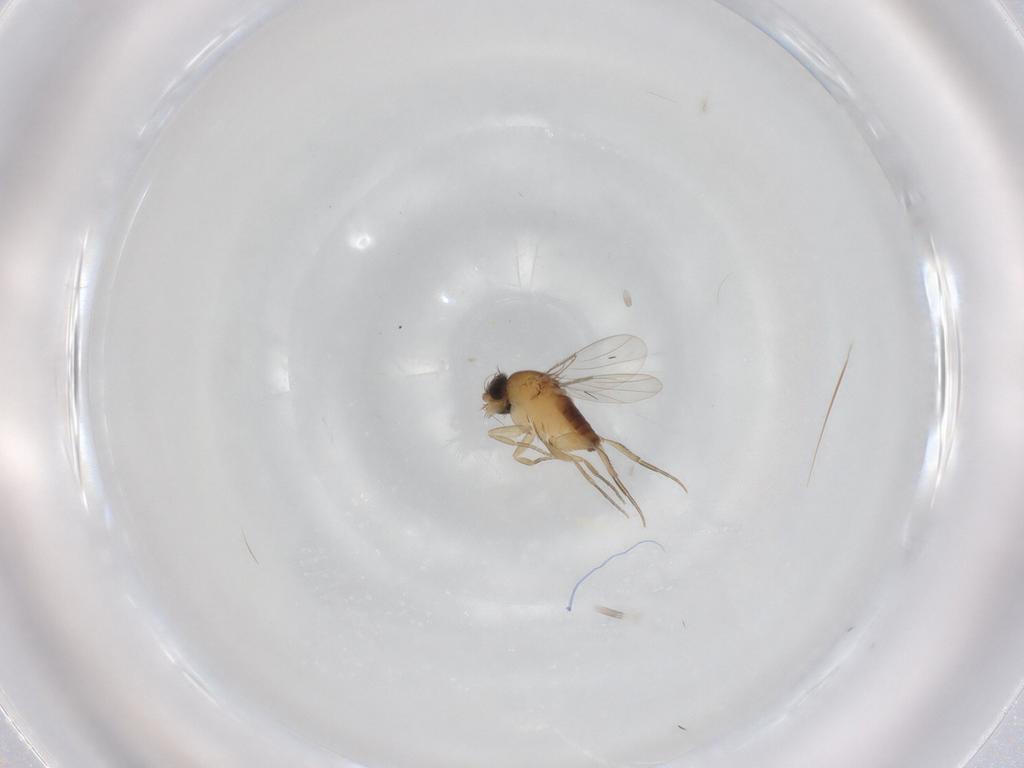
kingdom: Animalia
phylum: Arthropoda
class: Insecta
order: Diptera
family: Phoridae
